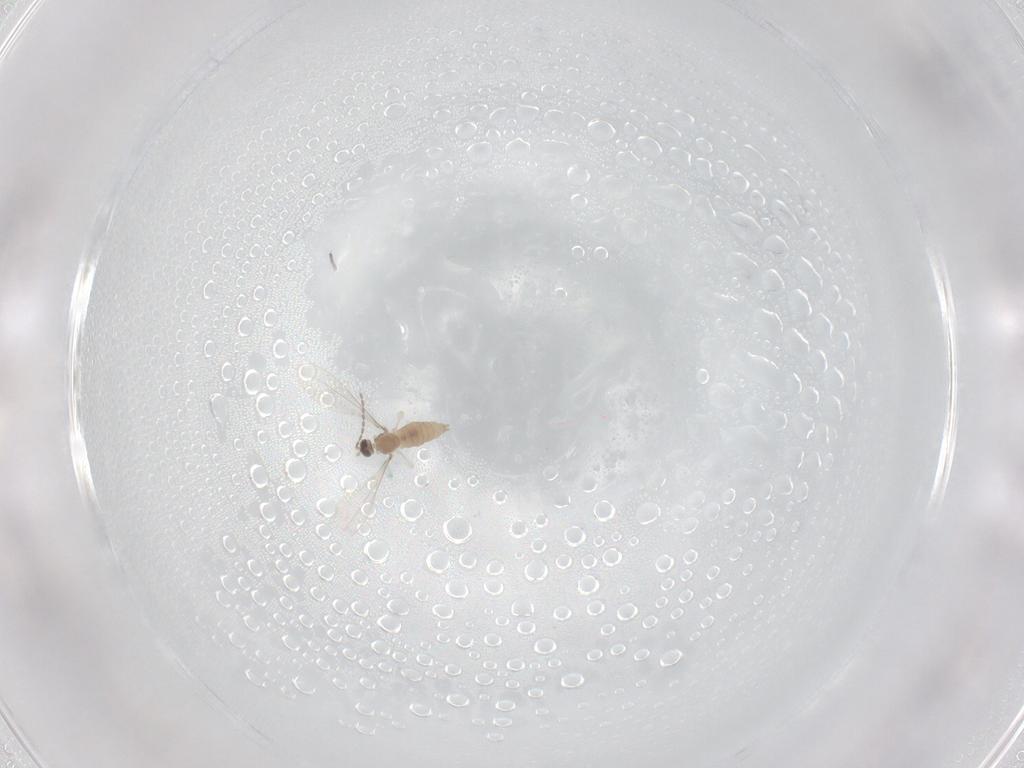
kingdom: Animalia
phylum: Arthropoda
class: Insecta
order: Diptera
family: Cecidomyiidae
